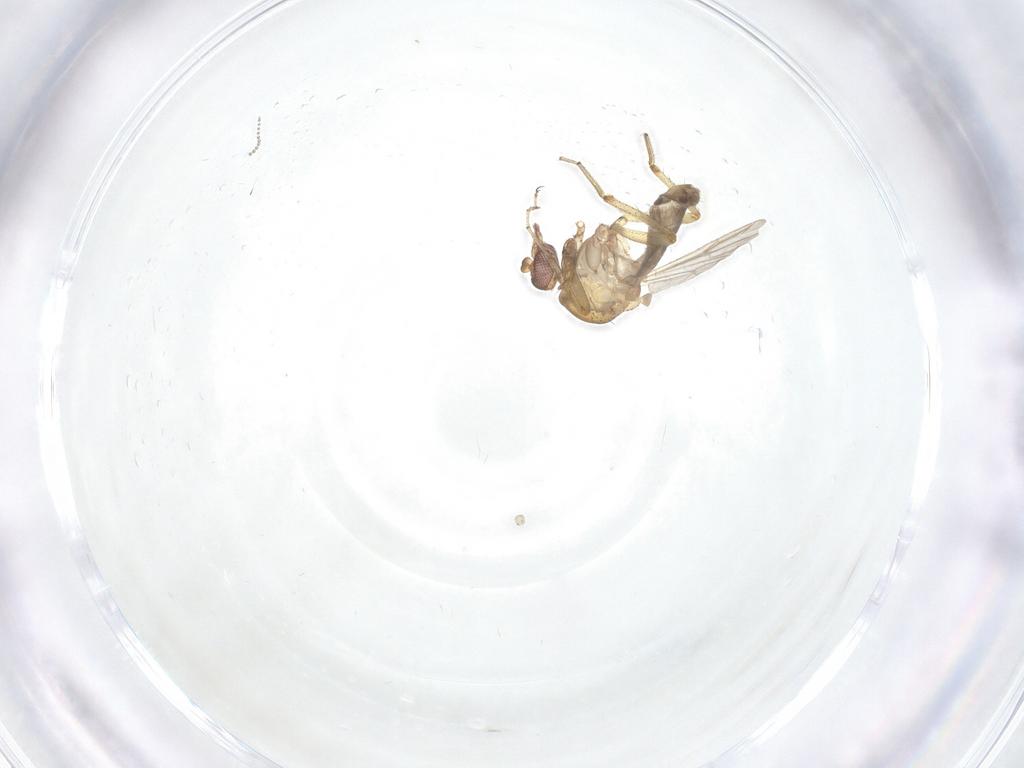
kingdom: Animalia
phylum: Arthropoda
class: Insecta
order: Diptera
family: Ceratopogonidae
